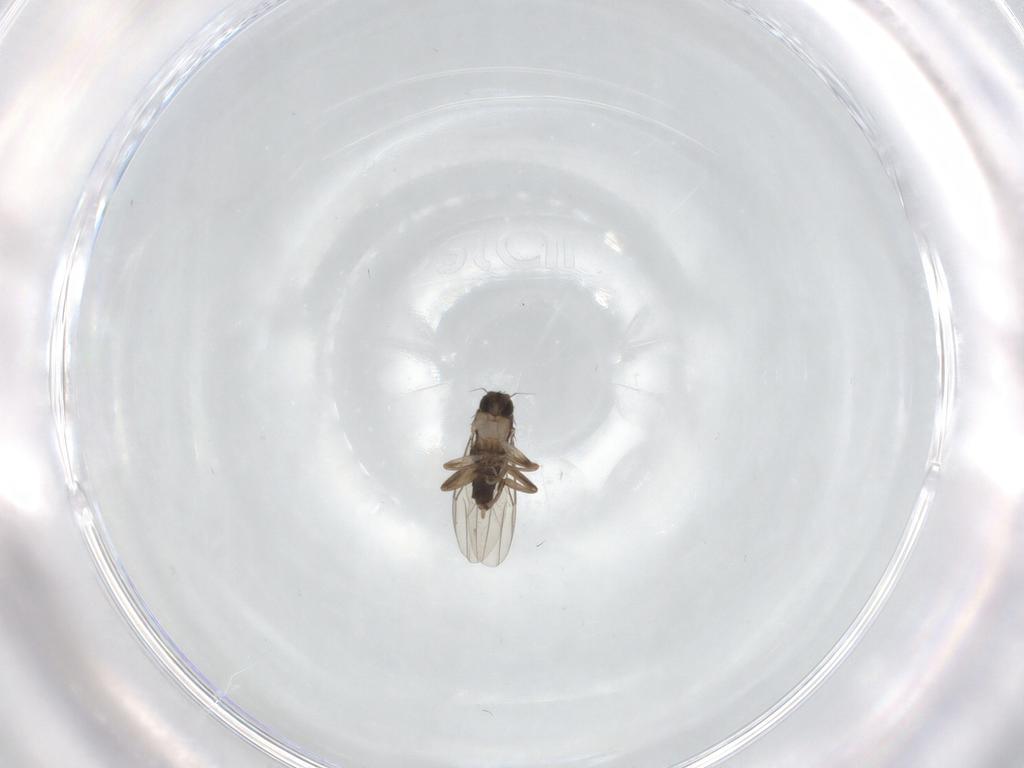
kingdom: Animalia
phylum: Arthropoda
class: Insecta
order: Diptera
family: Phoridae
